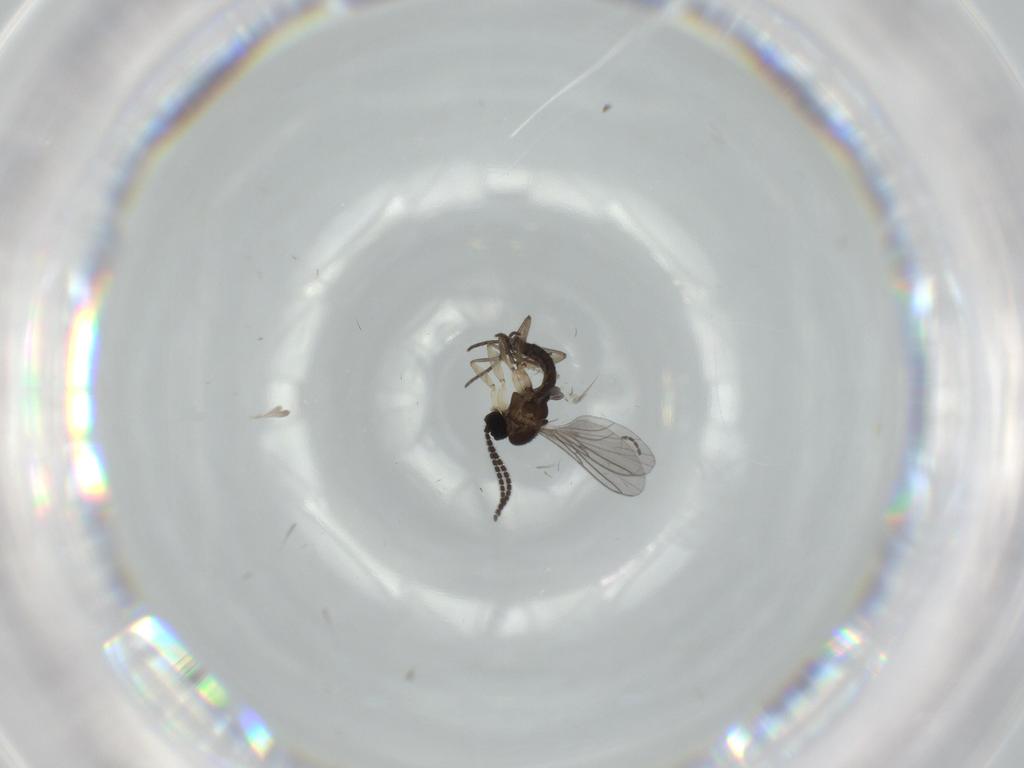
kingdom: Animalia
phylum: Arthropoda
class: Insecta
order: Diptera
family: Sciaridae
